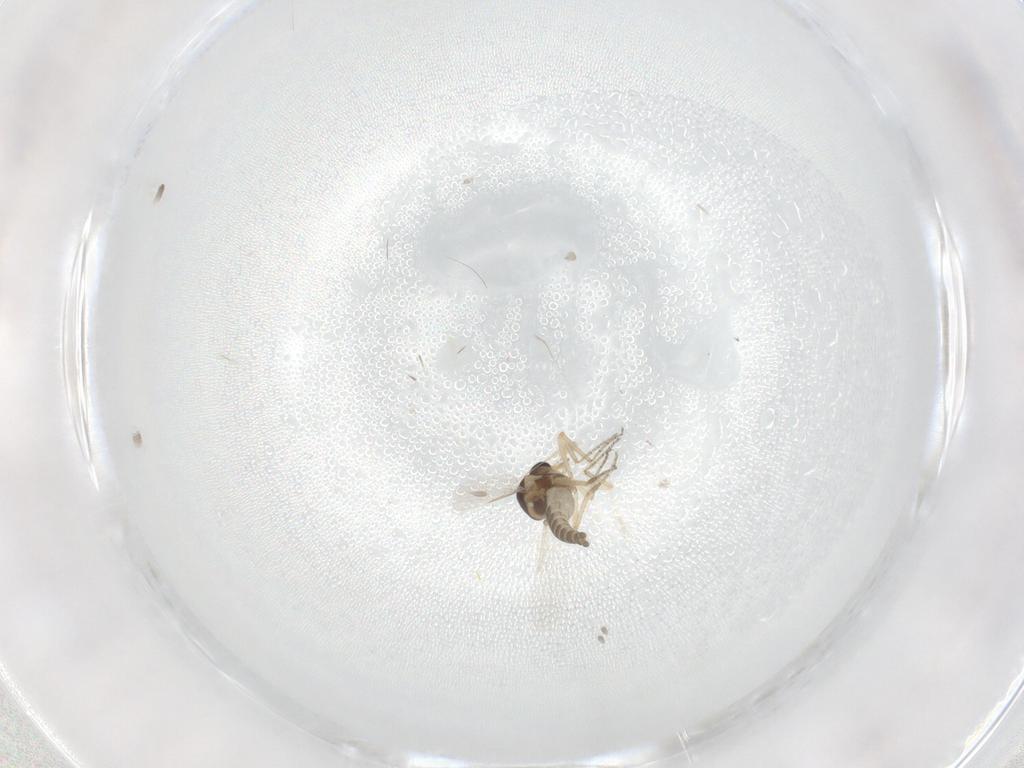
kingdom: Animalia
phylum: Arthropoda
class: Insecta
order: Diptera
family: Ceratopogonidae
